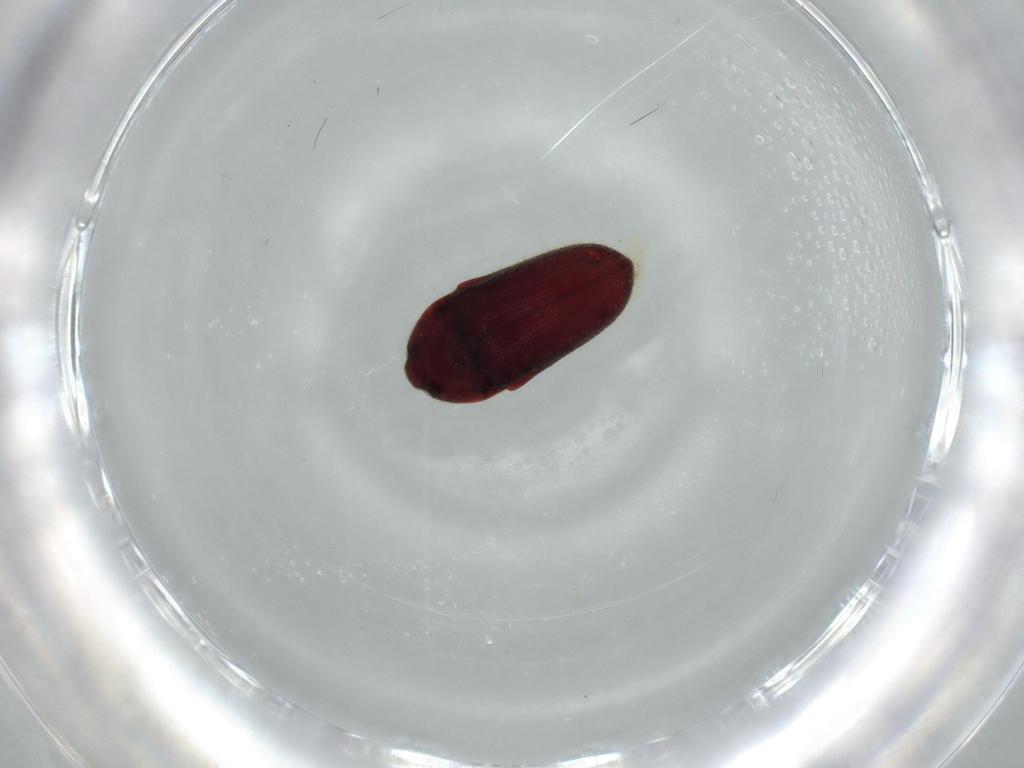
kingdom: Animalia
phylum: Arthropoda
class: Insecta
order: Coleoptera
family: Throscidae
